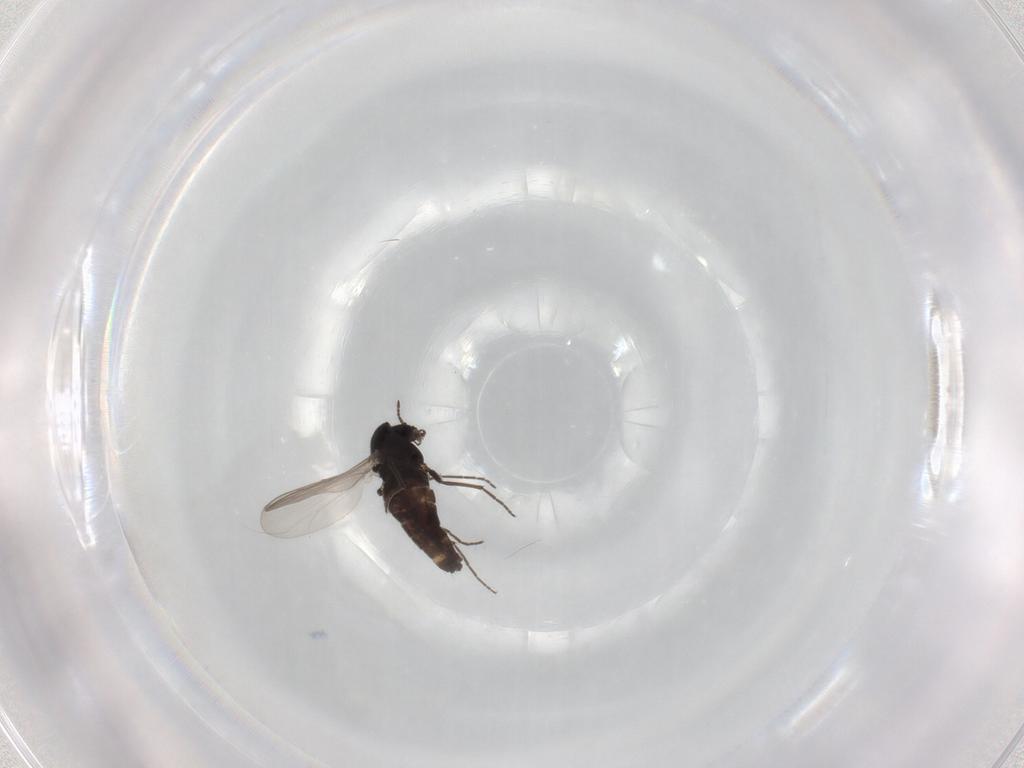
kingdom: Animalia
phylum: Arthropoda
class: Insecta
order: Diptera
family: Chironomidae
